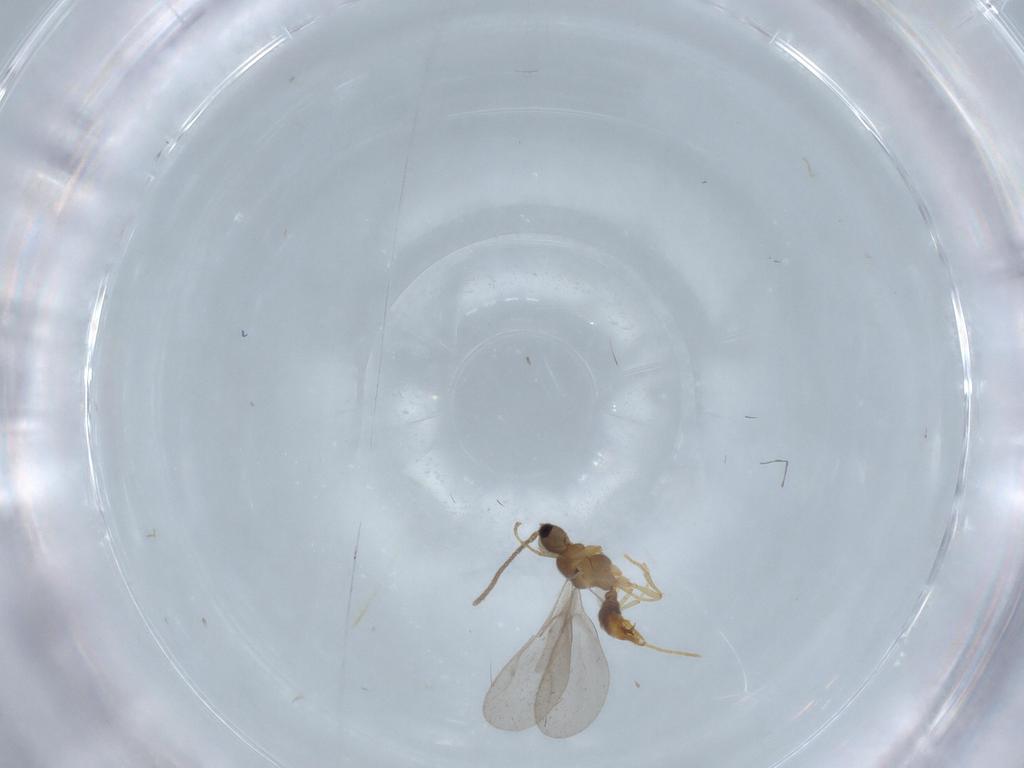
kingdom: Animalia
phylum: Arthropoda
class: Insecta
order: Hymenoptera
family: Formicidae
